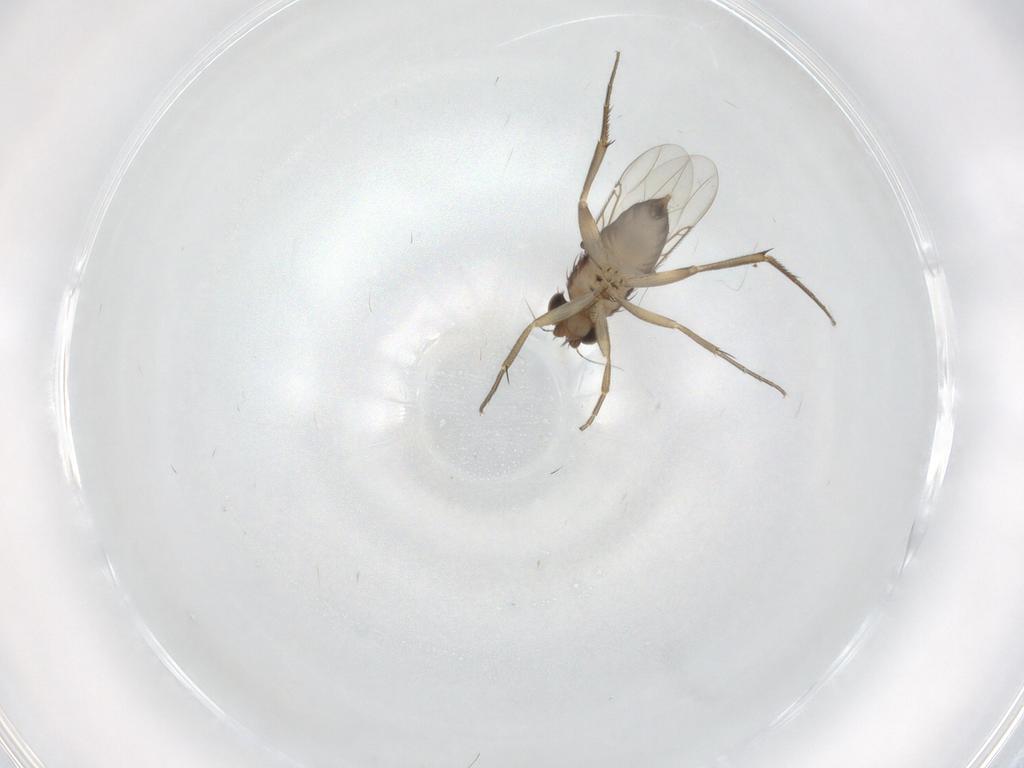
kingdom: Animalia
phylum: Arthropoda
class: Insecta
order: Diptera
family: Phoridae
